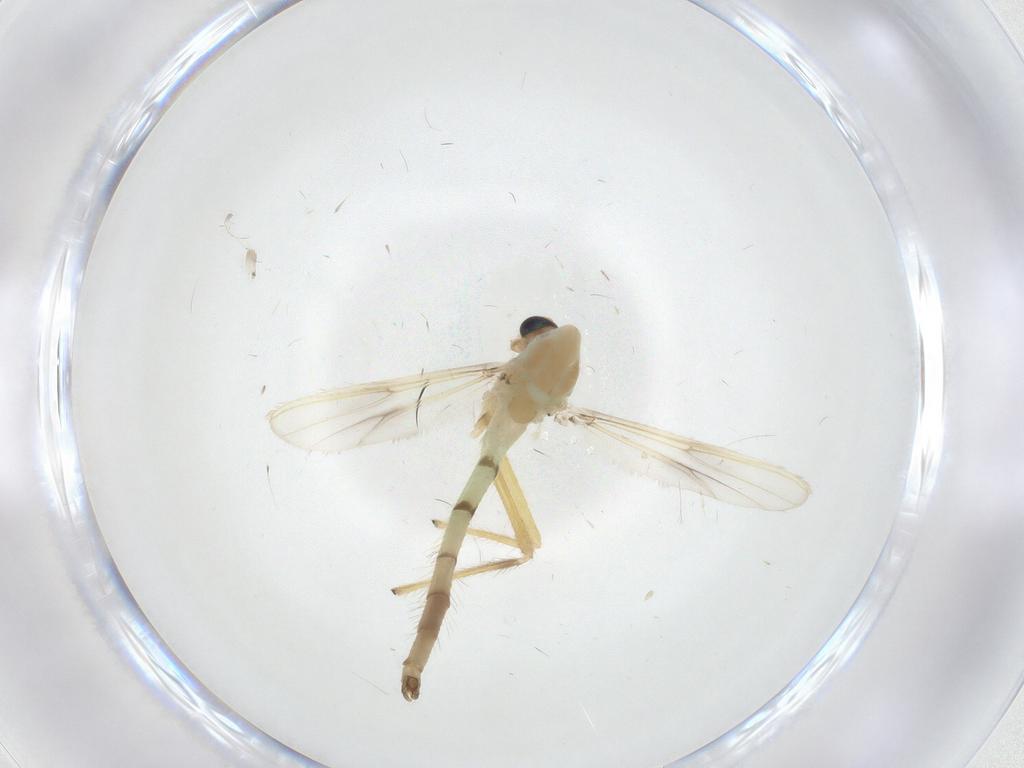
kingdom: Animalia
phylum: Arthropoda
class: Insecta
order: Diptera
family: Chironomidae
